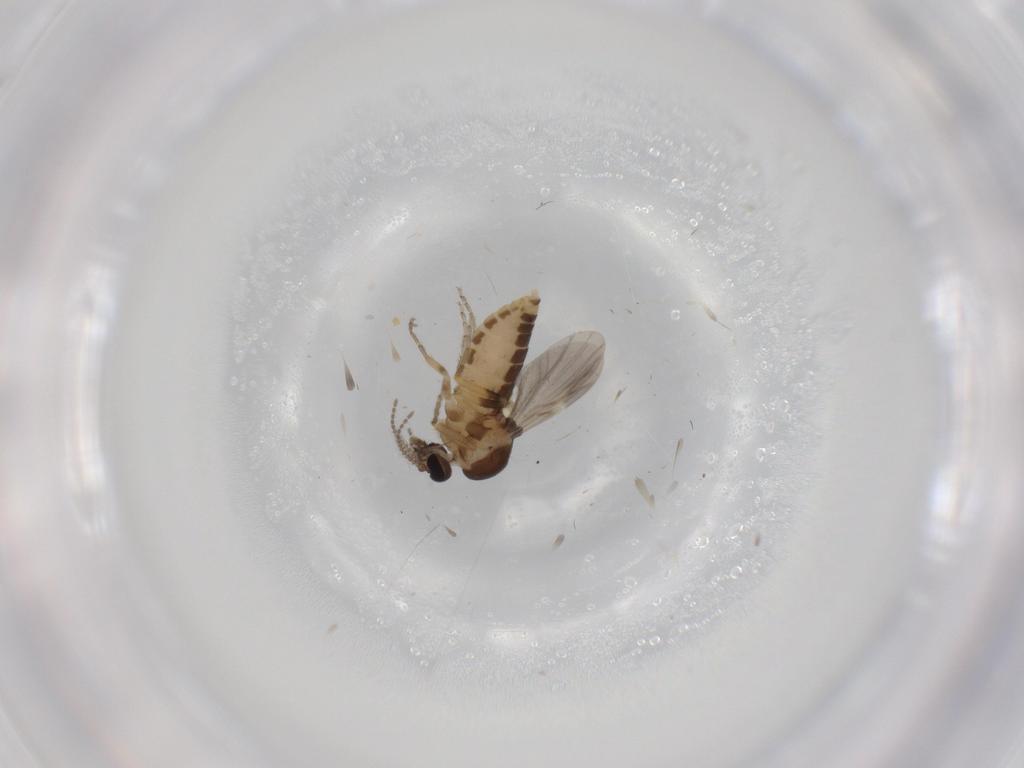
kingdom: Animalia
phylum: Arthropoda
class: Insecta
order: Diptera
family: Ceratopogonidae
